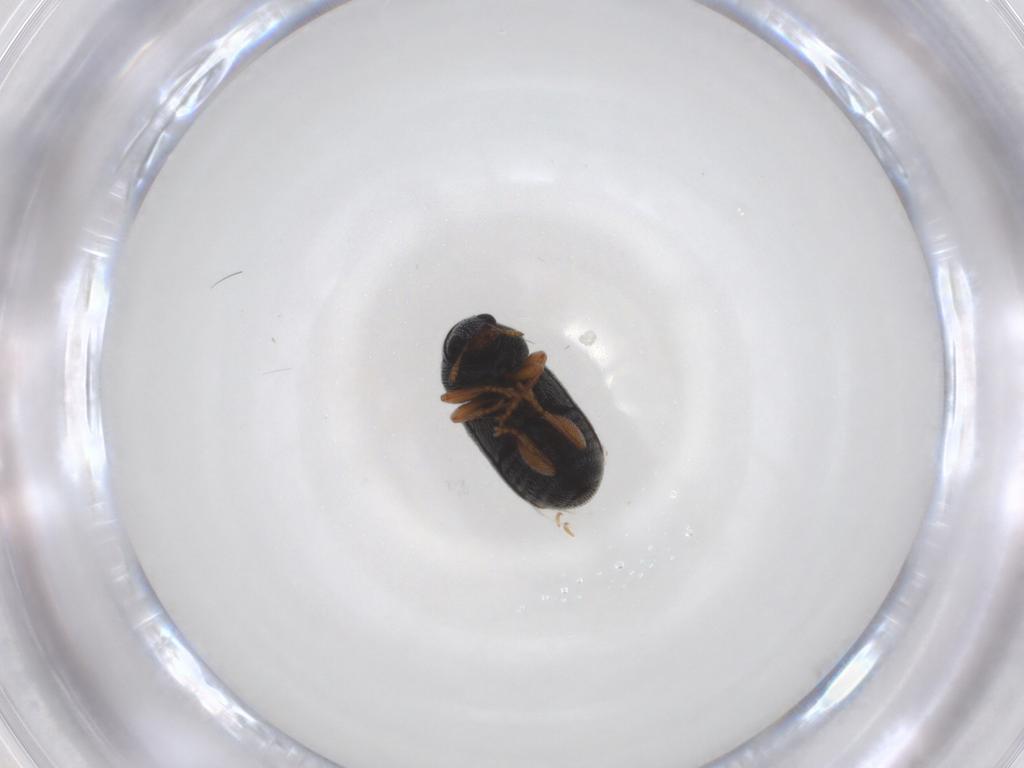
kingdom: Animalia
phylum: Arthropoda
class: Insecta
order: Coleoptera
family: Anthribidae
